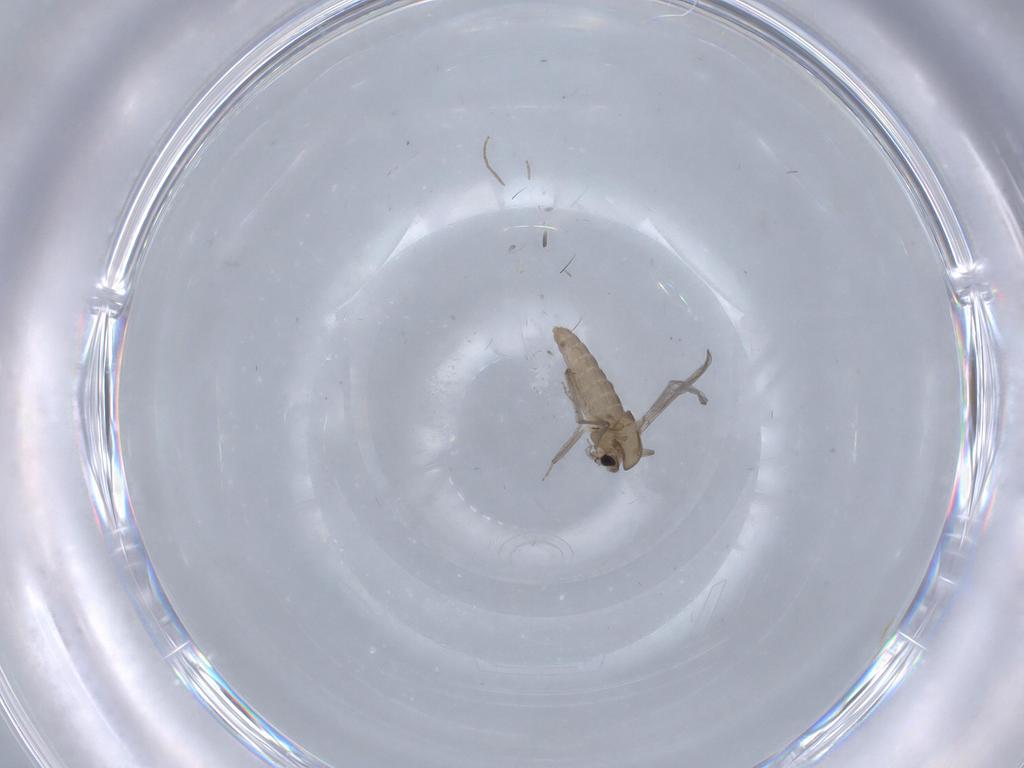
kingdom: Animalia
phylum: Arthropoda
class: Insecta
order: Diptera
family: Chironomidae
